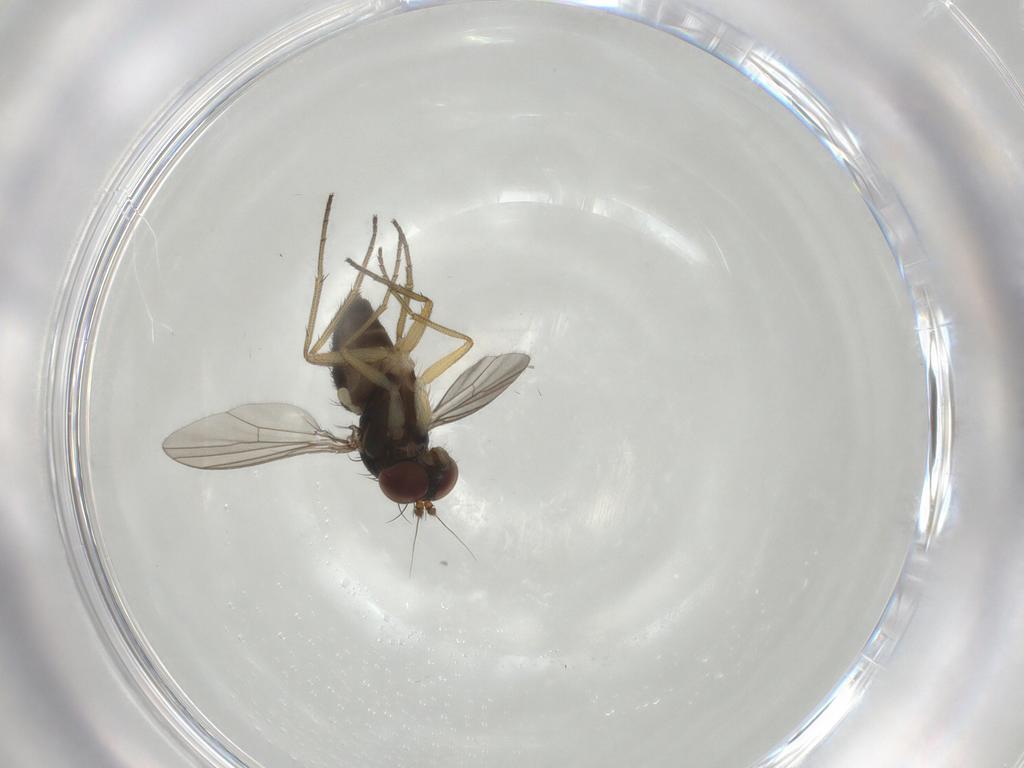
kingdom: Animalia
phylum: Arthropoda
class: Insecta
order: Diptera
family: Dolichopodidae
